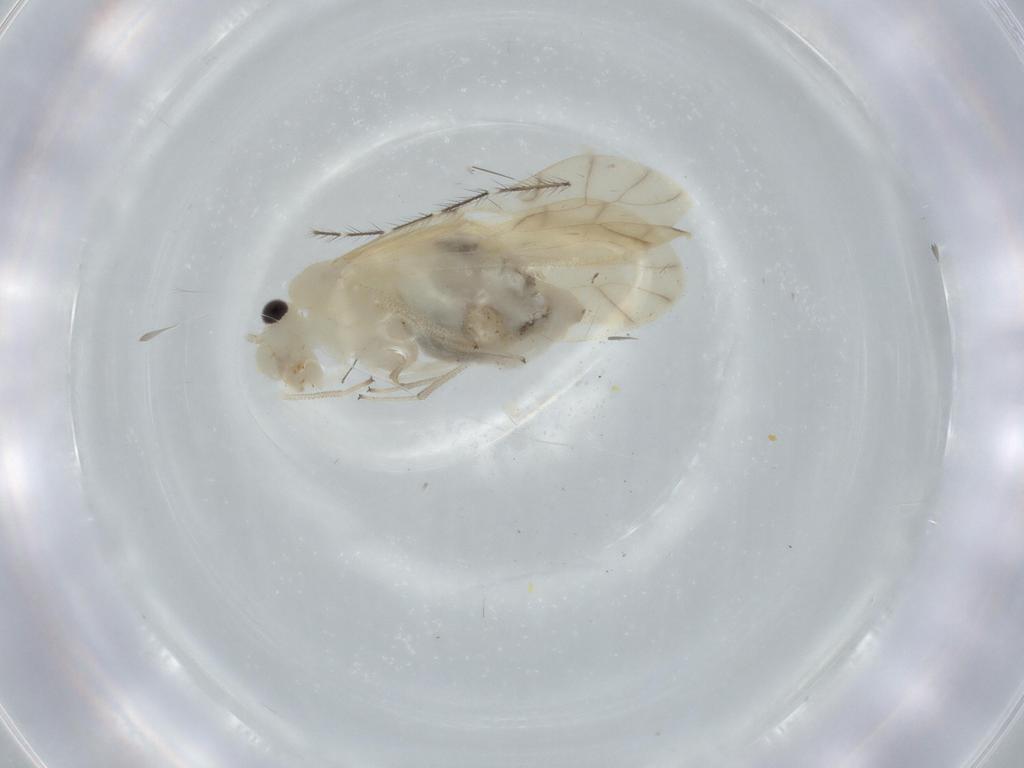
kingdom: Animalia
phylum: Arthropoda
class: Insecta
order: Psocodea
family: Caeciliusidae
